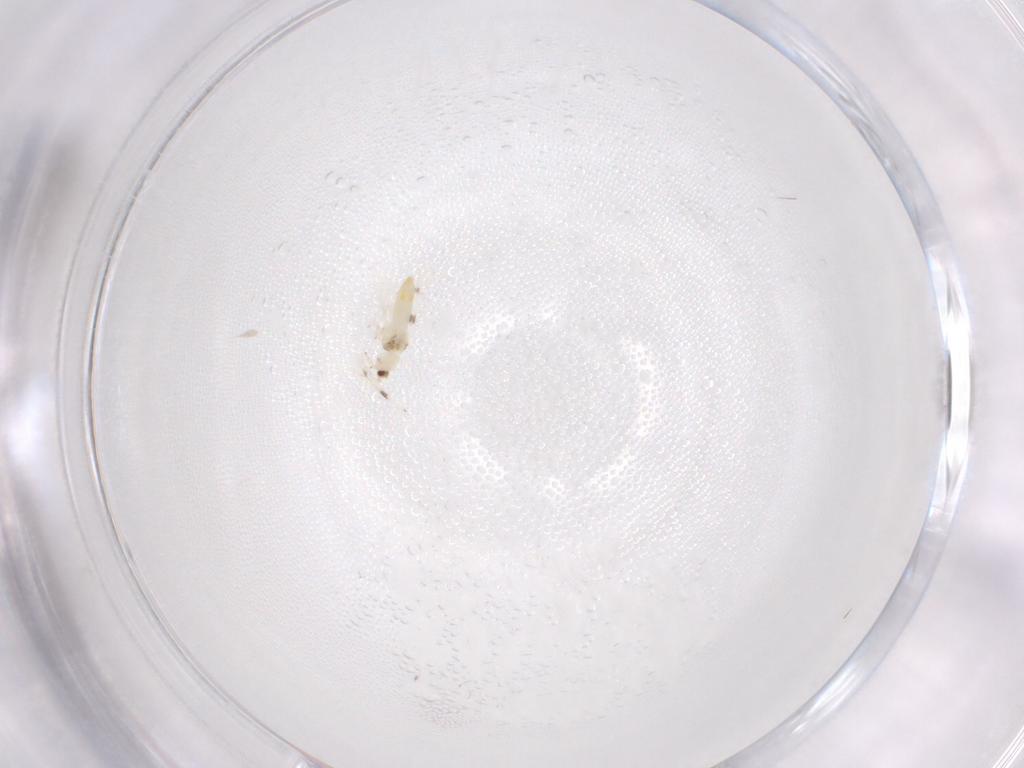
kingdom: Animalia
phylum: Arthropoda
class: Insecta
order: Thysanoptera
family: Thripidae
